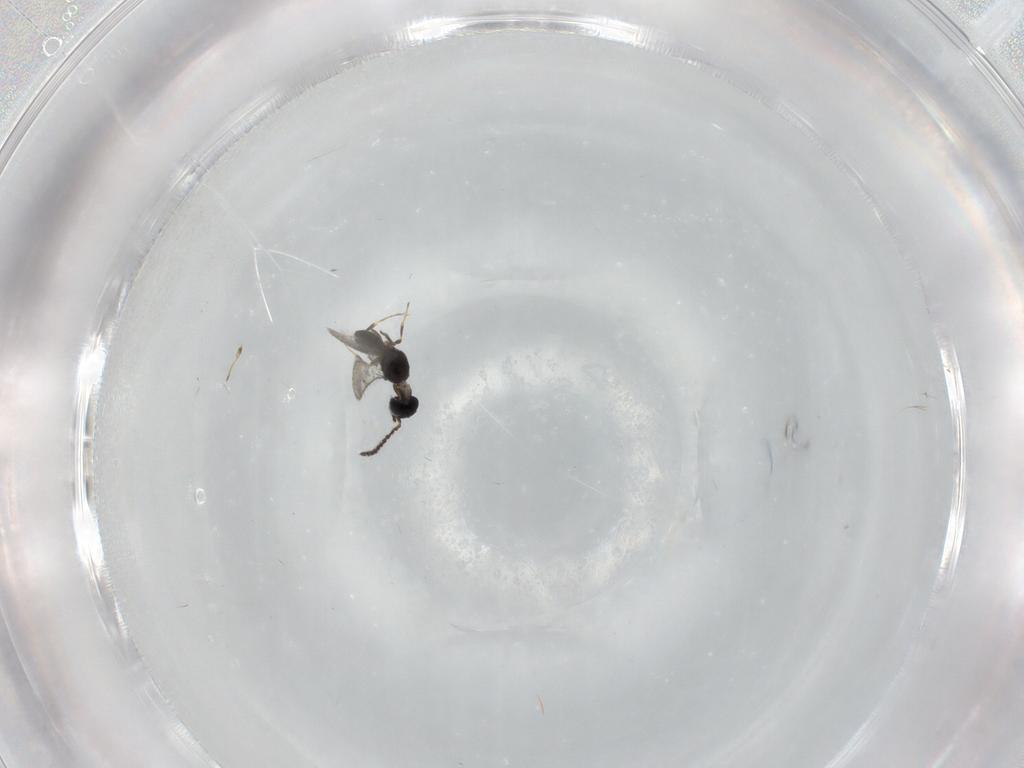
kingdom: Animalia
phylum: Arthropoda
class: Insecta
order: Hymenoptera
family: Scelionidae
